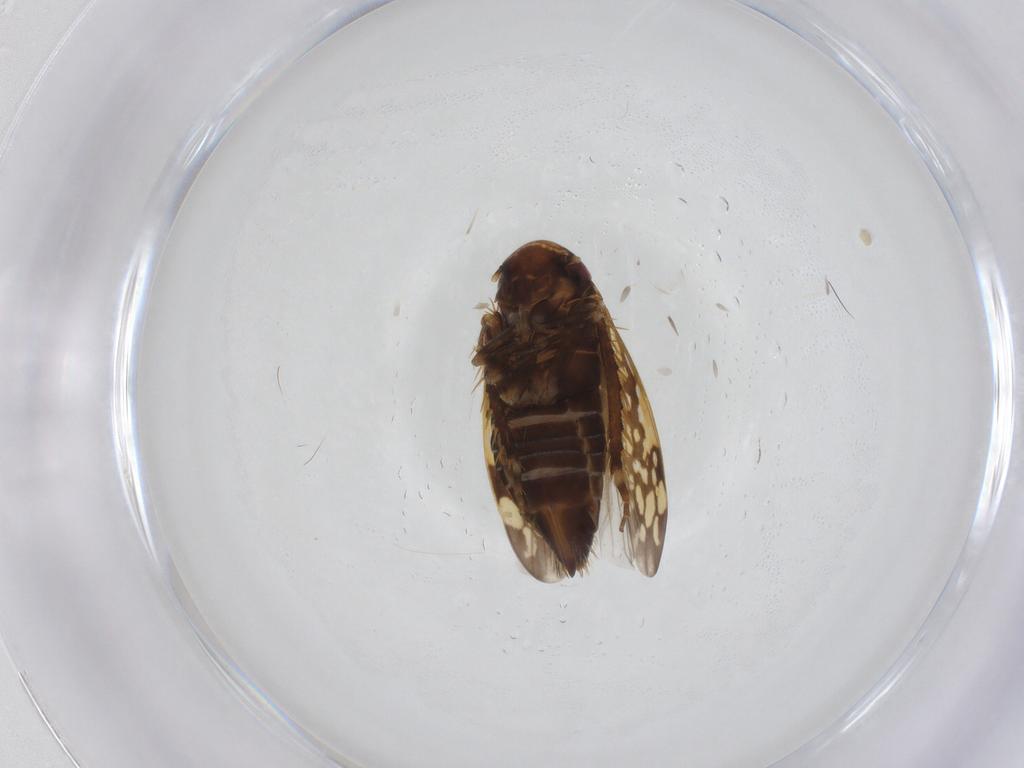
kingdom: Animalia
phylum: Arthropoda
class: Insecta
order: Hemiptera
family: Cicadellidae
